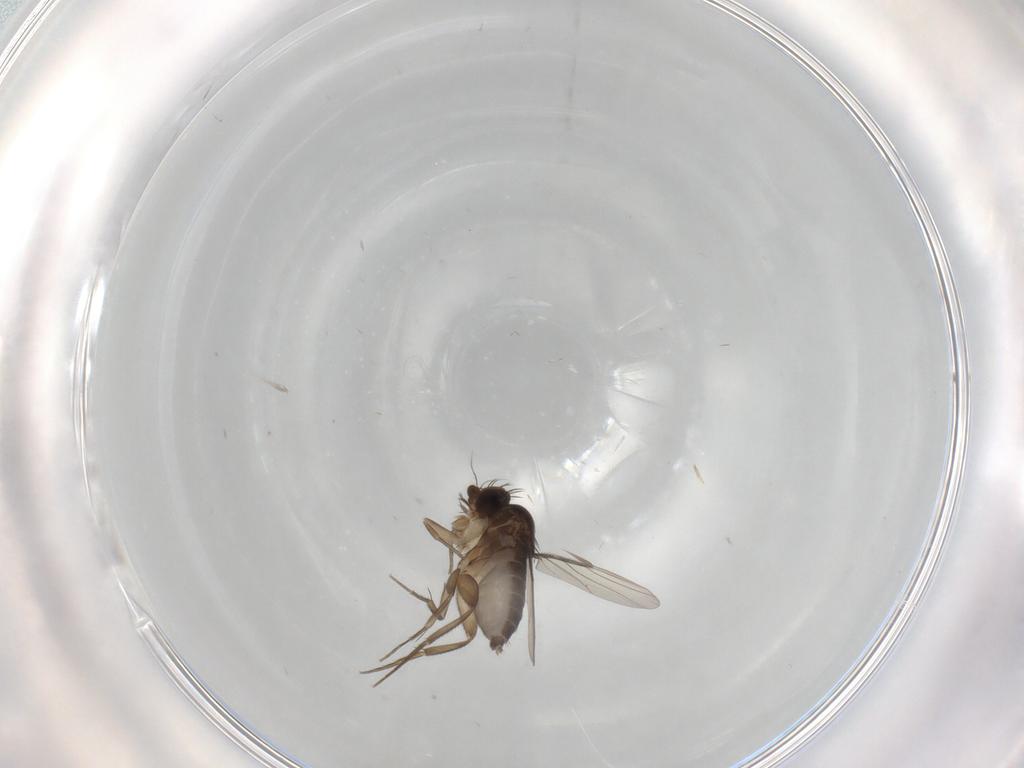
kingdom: Animalia
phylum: Arthropoda
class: Insecta
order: Diptera
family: Phoridae
